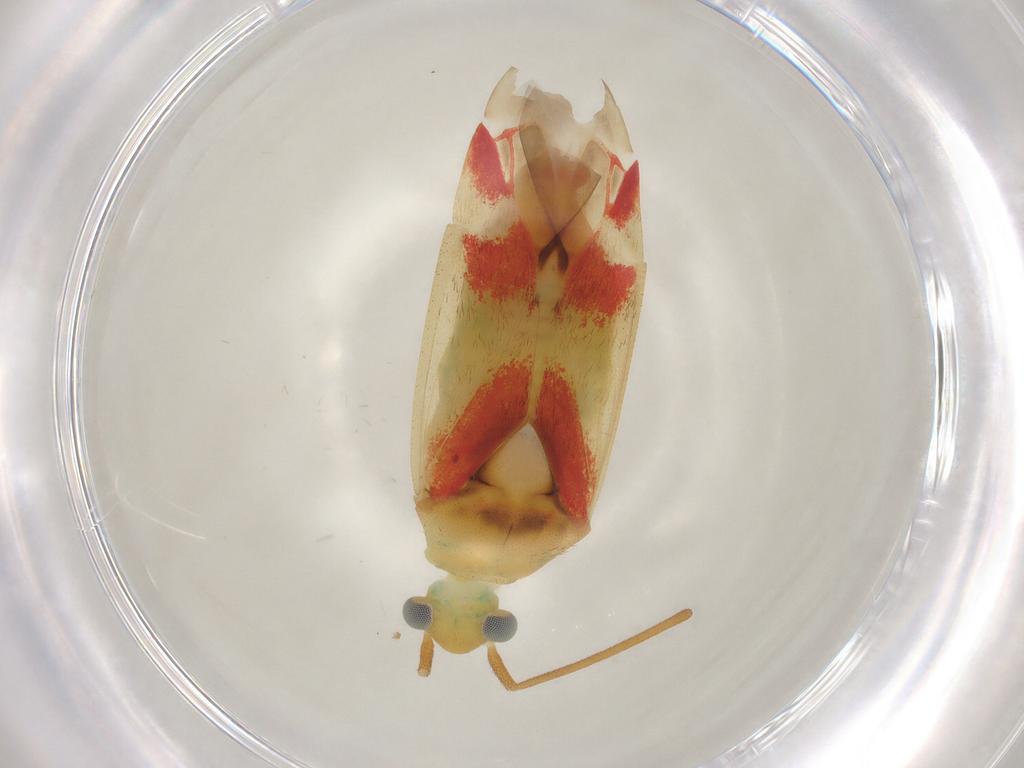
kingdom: Animalia
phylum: Arthropoda
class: Insecta
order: Hemiptera
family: Miridae
